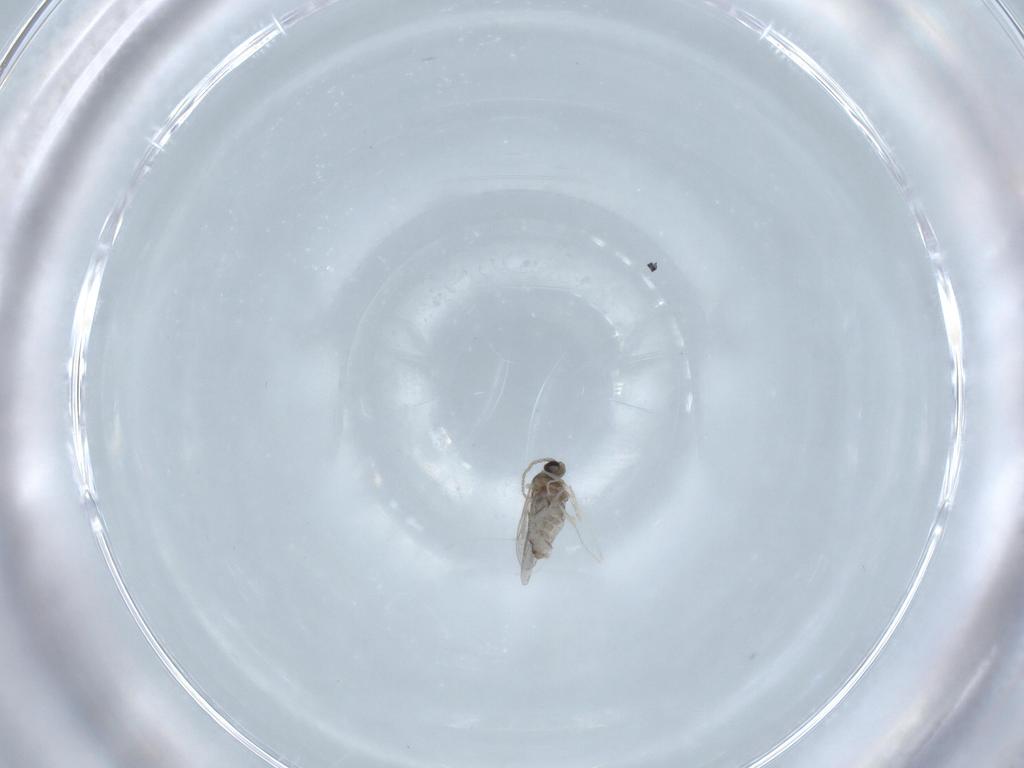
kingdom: Animalia
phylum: Arthropoda
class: Insecta
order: Diptera
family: Cecidomyiidae
